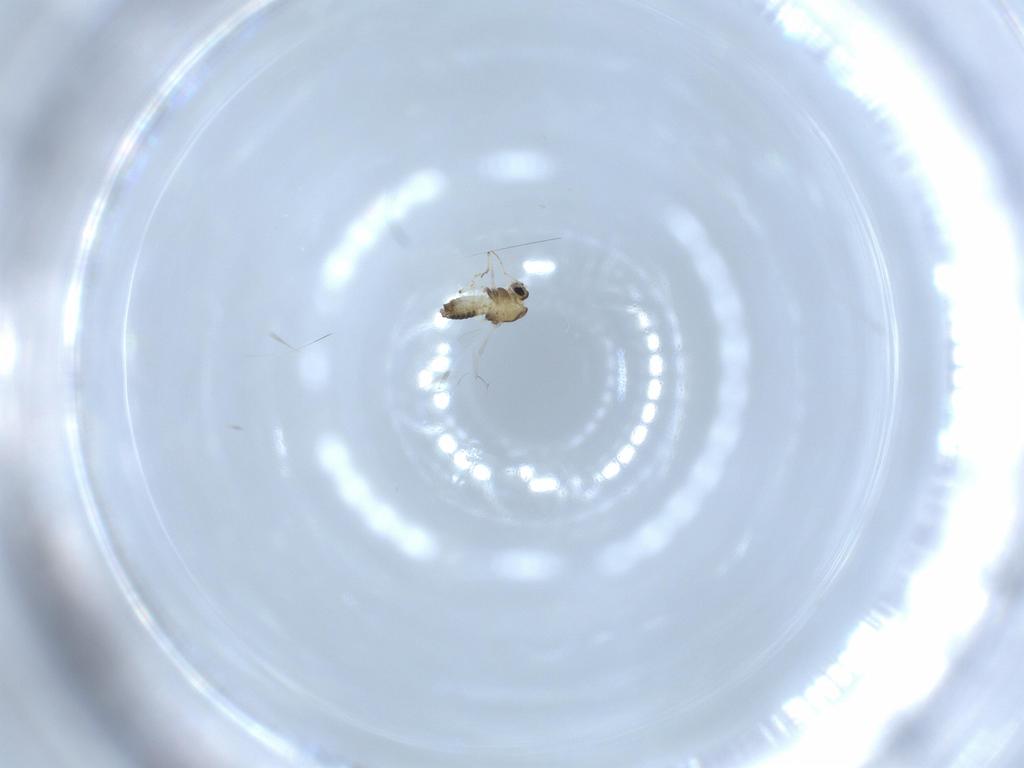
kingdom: Animalia
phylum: Arthropoda
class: Insecta
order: Diptera
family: Chironomidae
